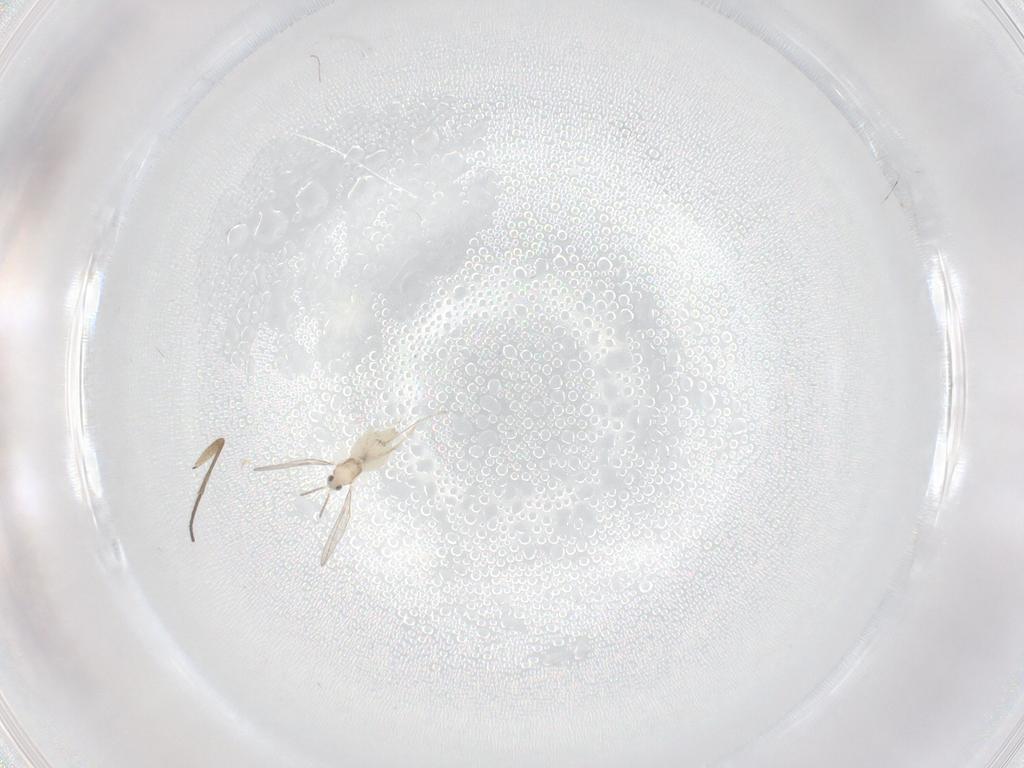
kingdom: Animalia
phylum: Arthropoda
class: Insecta
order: Diptera
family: Cecidomyiidae
